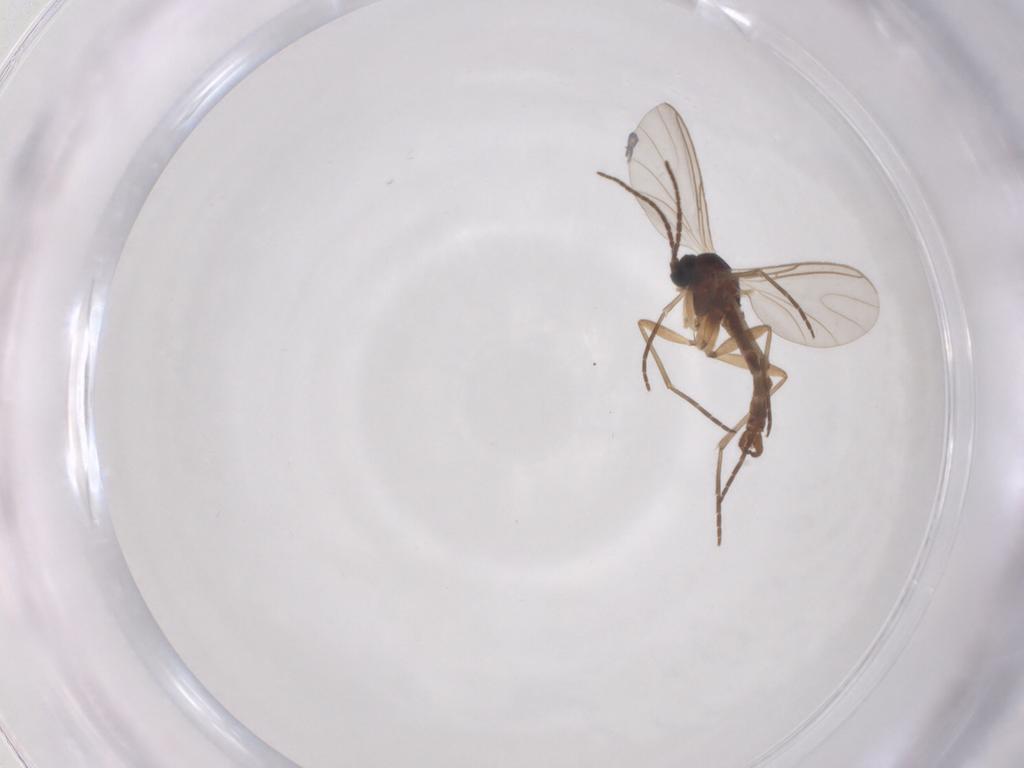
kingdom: Animalia
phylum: Arthropoda
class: Insecta
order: Diptera
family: Sciaridae
